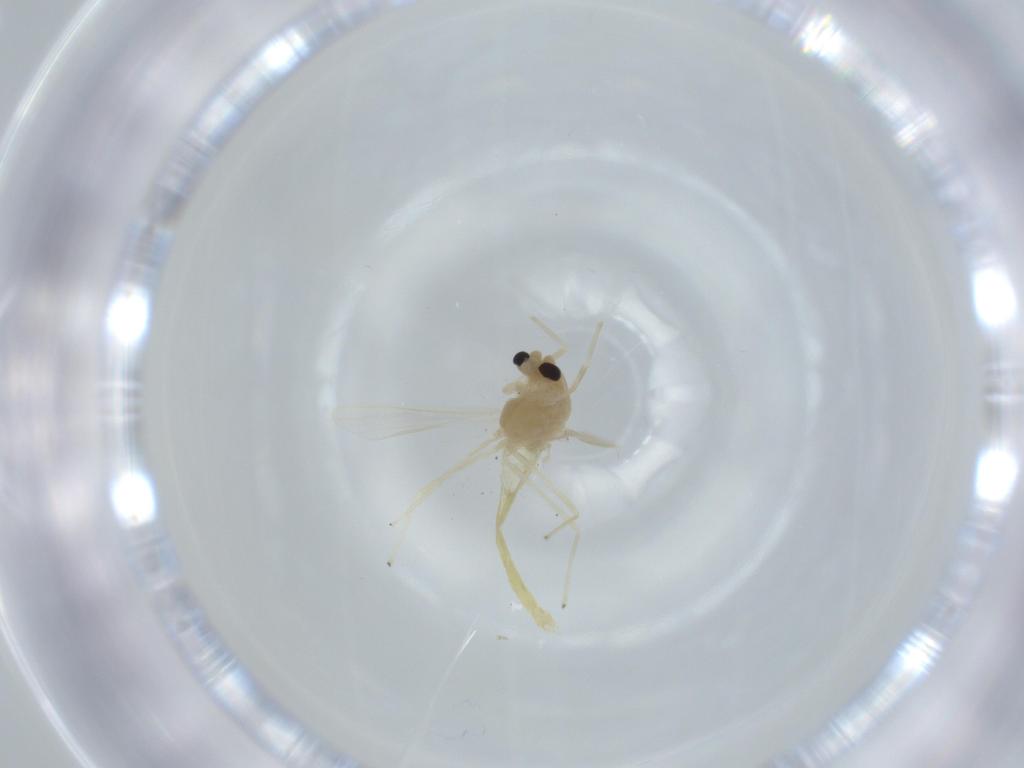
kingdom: Animalia
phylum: Arthropoda
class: Insecta
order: Diptera
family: Chironomidae
